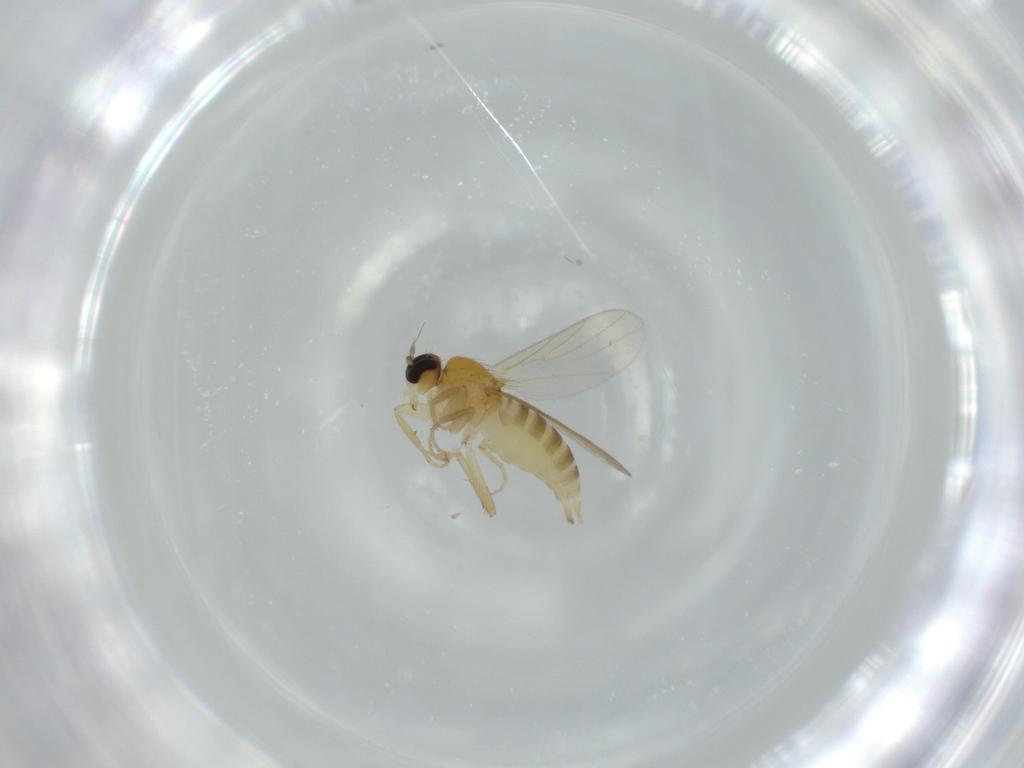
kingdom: Animalia
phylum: Arthropoda
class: Insecta
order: Diptera
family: Hybotidae
